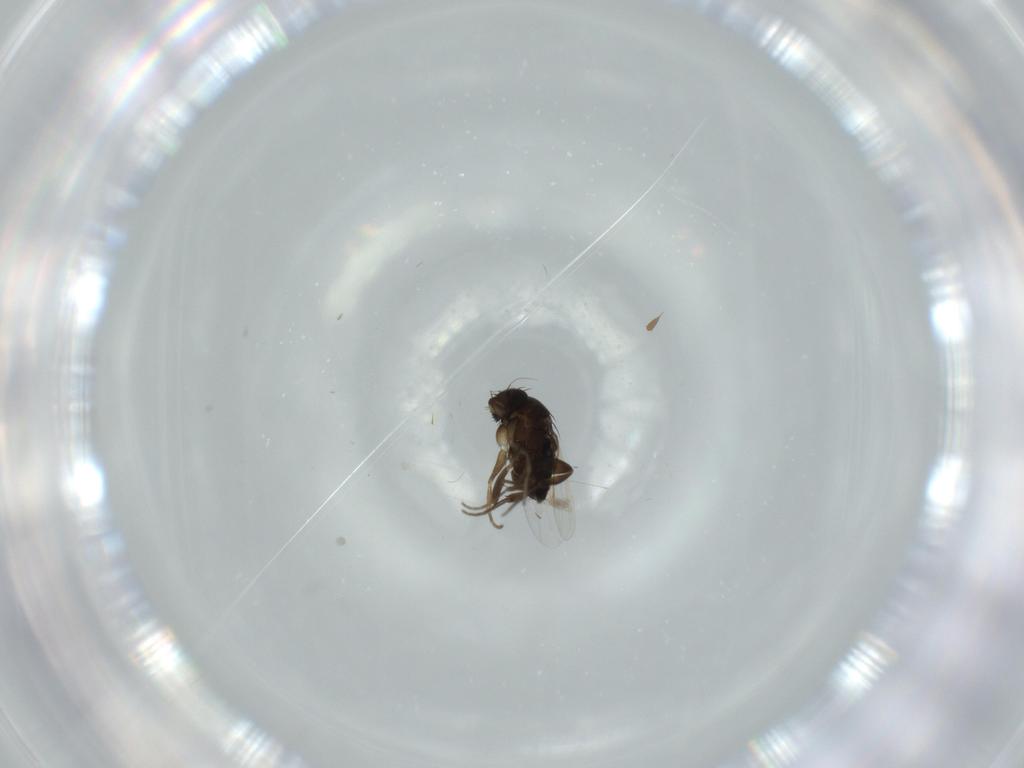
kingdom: Animalia
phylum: Arthropoda
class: Insecta
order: Diptera
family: Phoridae
